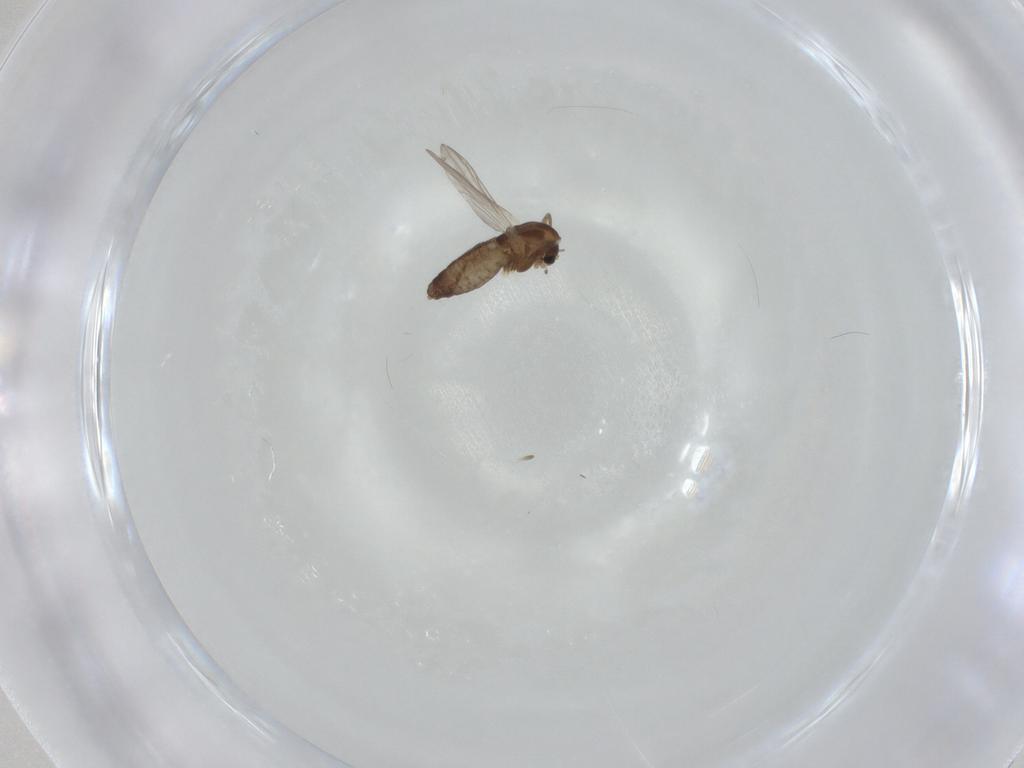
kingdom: Animalia
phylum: Arthropoda
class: Insecta
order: Diptera
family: Chironomidae
